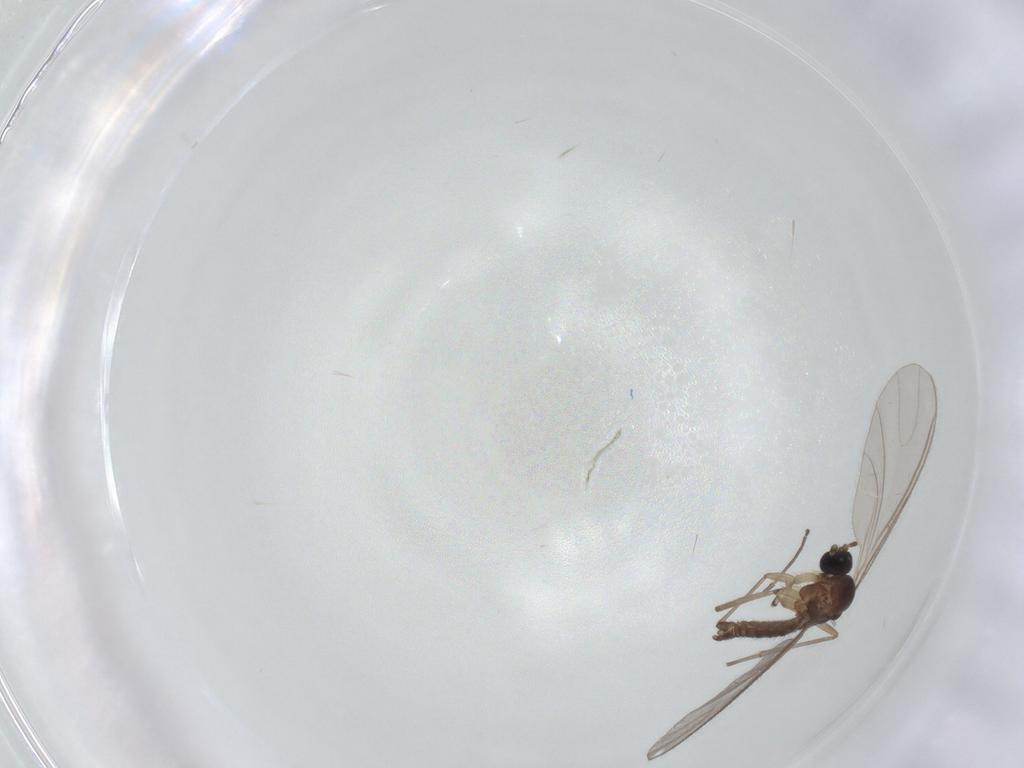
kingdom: Animalia
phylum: Arthropoda
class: Insecta
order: Diptera
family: Sciaridae
